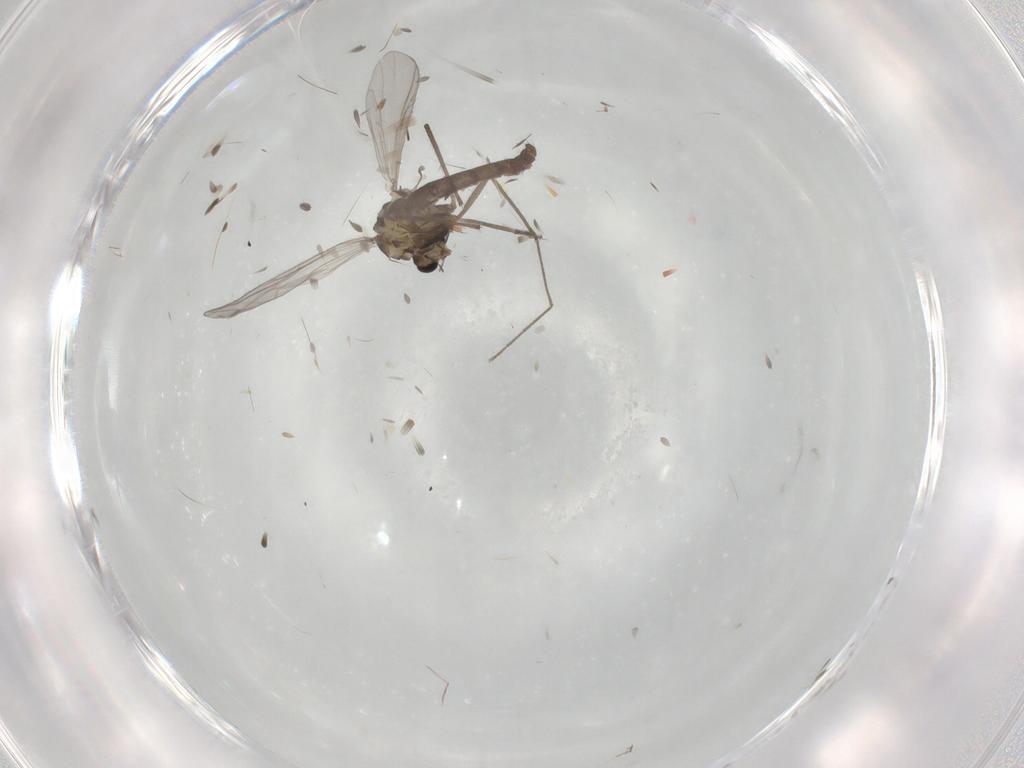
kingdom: Animalia
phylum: Arthropoda
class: Insecta
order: Diptera
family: Chironomidae
